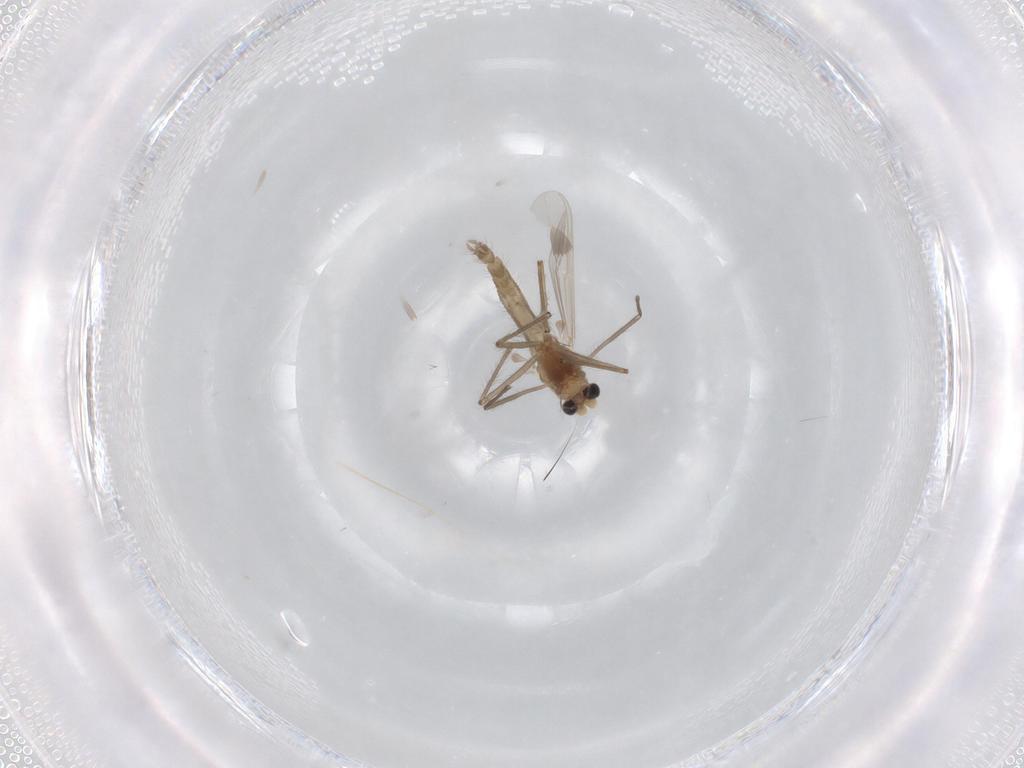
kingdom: Animalia
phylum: Arthropoda
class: Insecta
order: Diptera
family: Chironomidae
